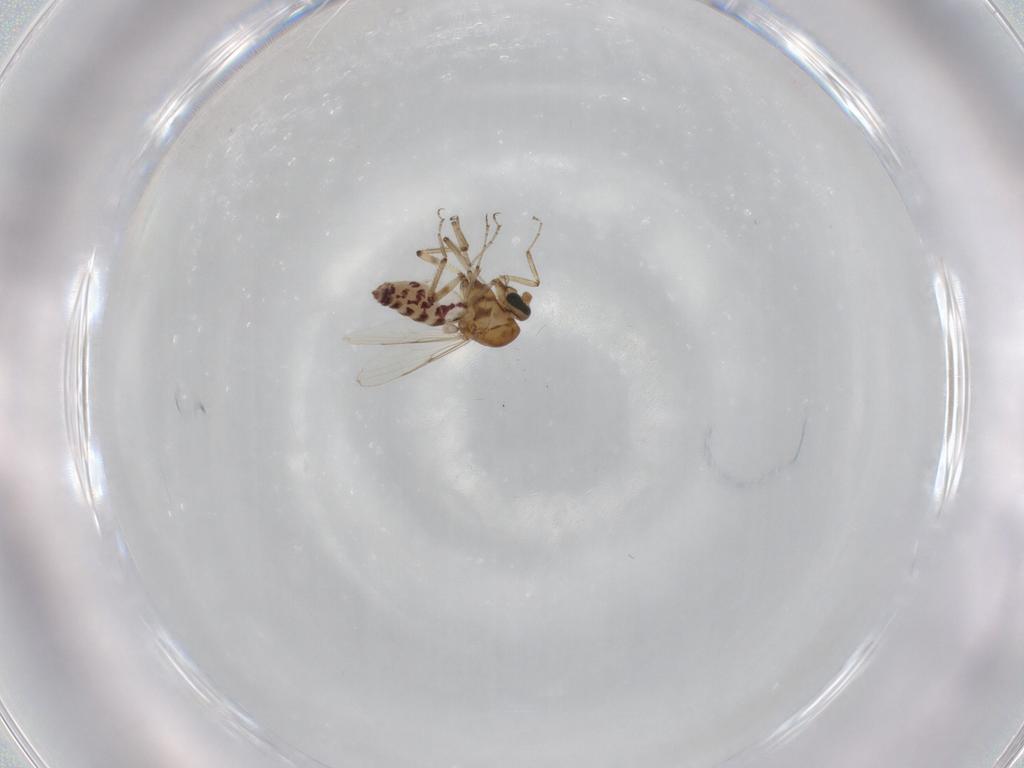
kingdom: Animalia
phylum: Arthropoda
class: Insecta
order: Diptera
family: Ceratopogonidae
